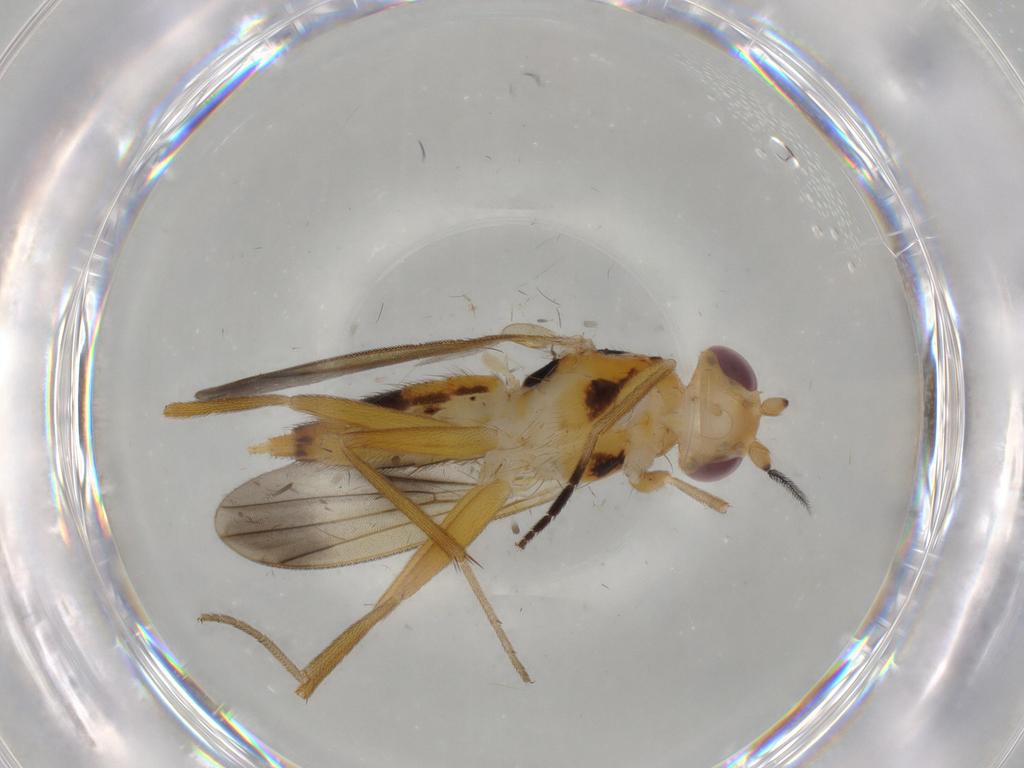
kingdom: Animalia
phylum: Arthropoda
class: Insecta
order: Diptera
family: Clusiidae
